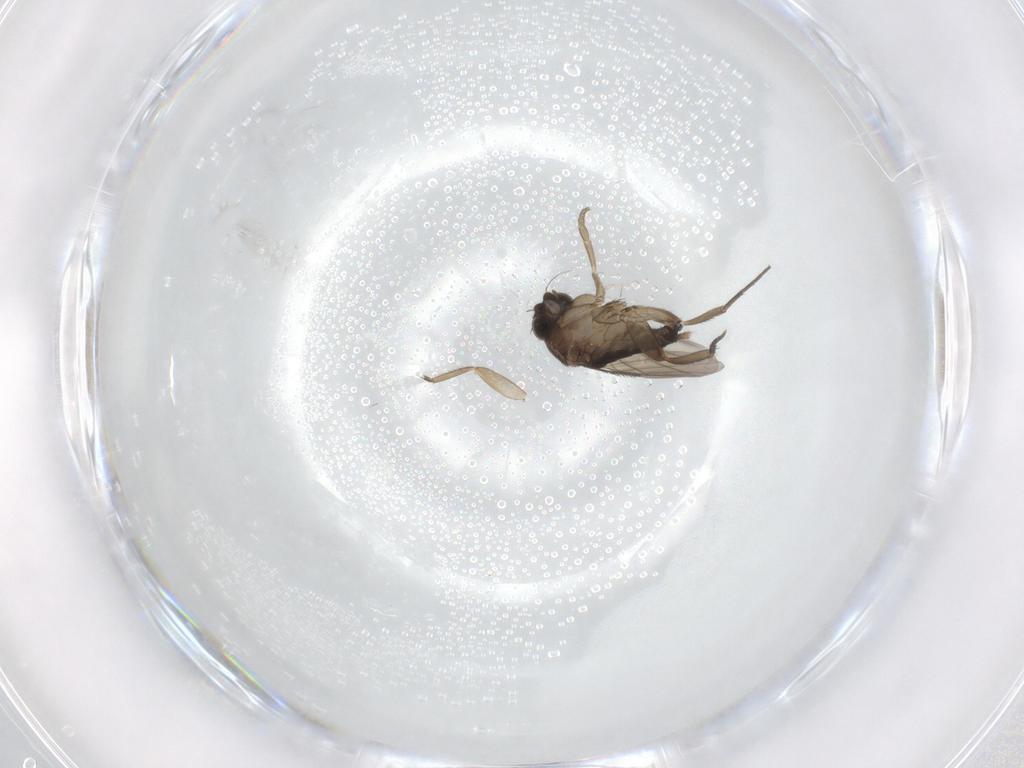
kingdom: Animalia
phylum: Arthropoda
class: Insecta
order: Diptera
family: Phoridae
